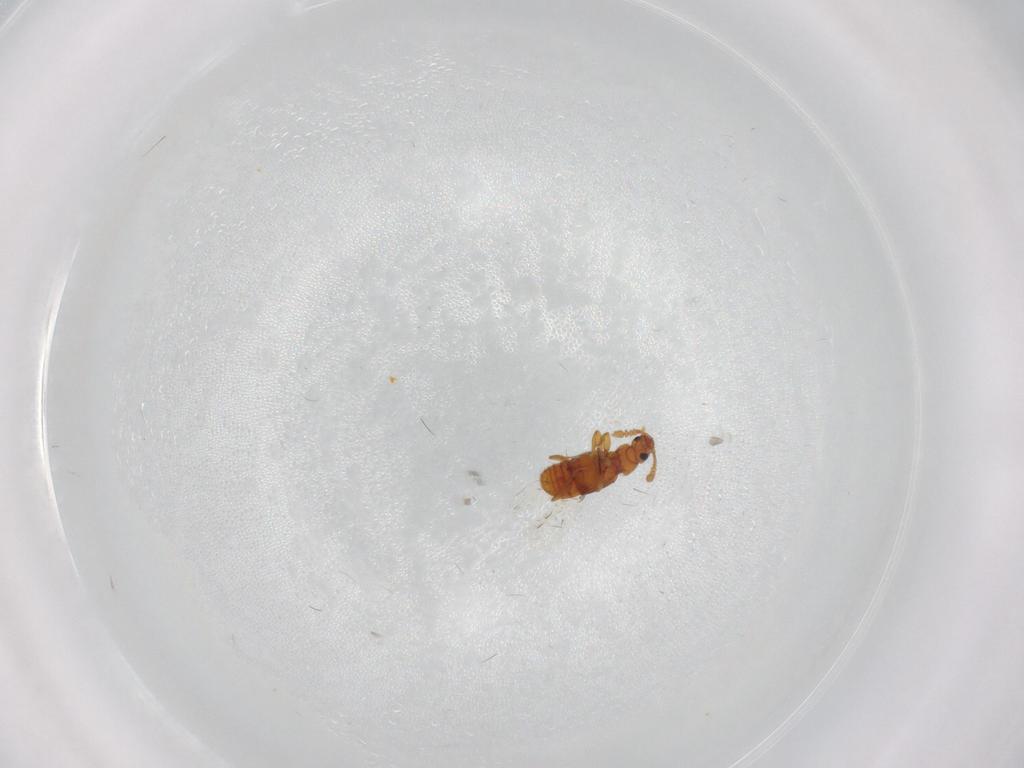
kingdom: Animalia
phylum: Arthropoda
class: Insecta
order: Coleoptera
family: Staphylinidae
